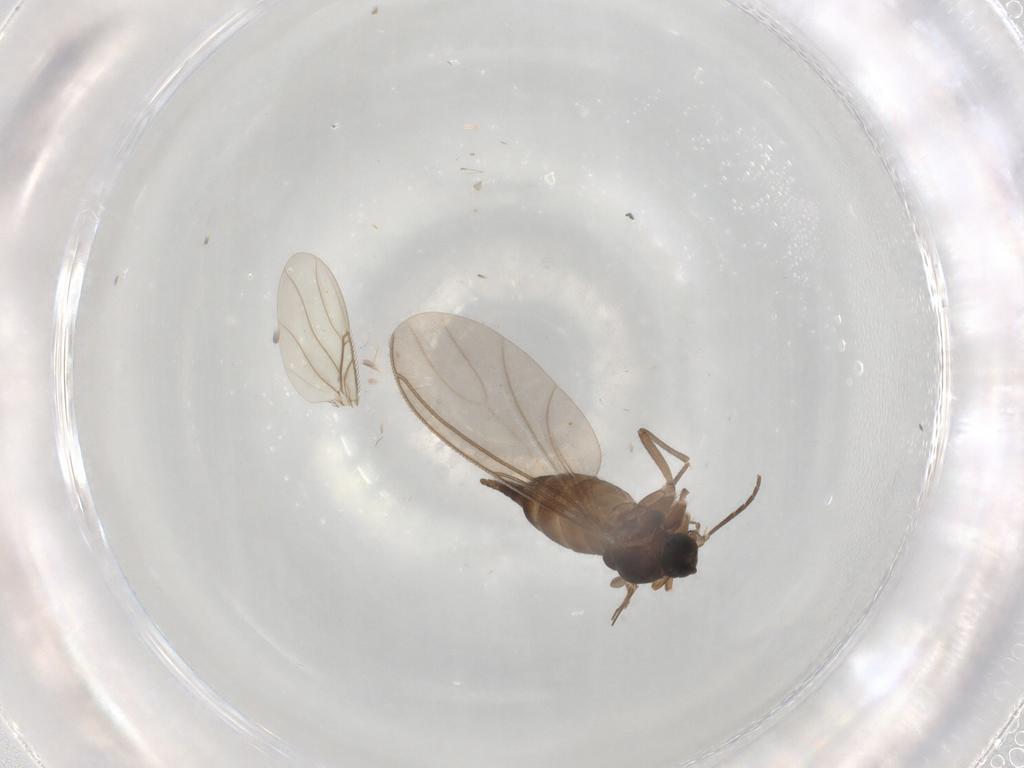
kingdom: Animalia
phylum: Arthropoda
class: Insecta
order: Diptera
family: Sciaridae
